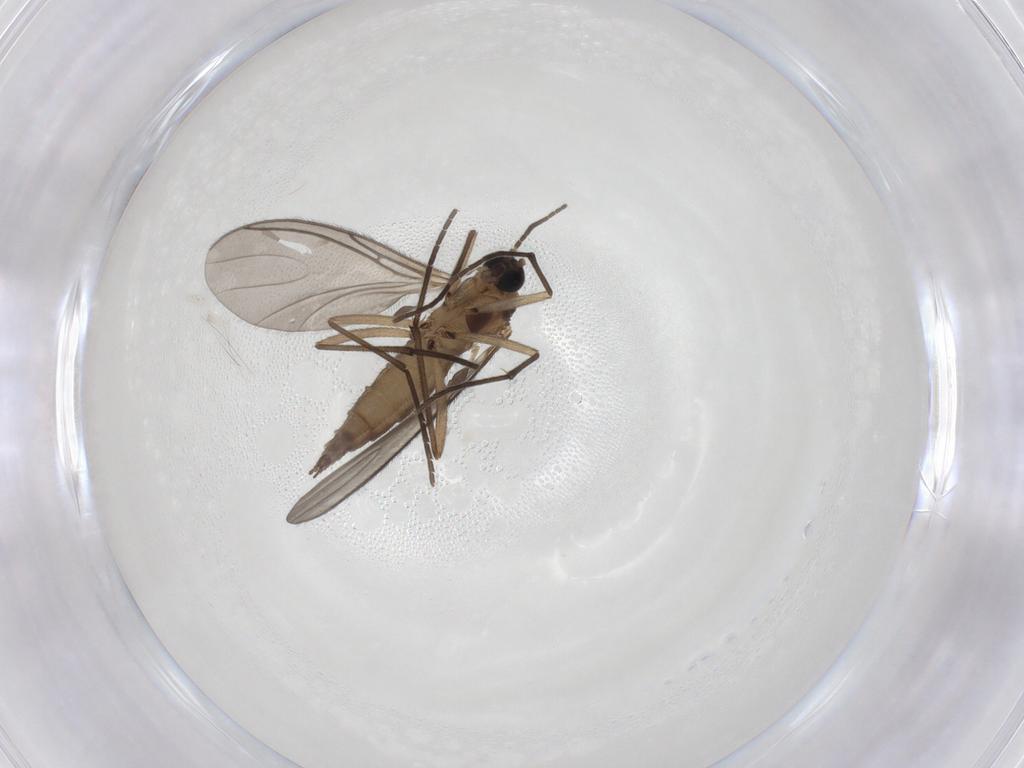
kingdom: Animalia
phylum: Arthropoda
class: Insecta
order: Diptera
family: Sciaridae
